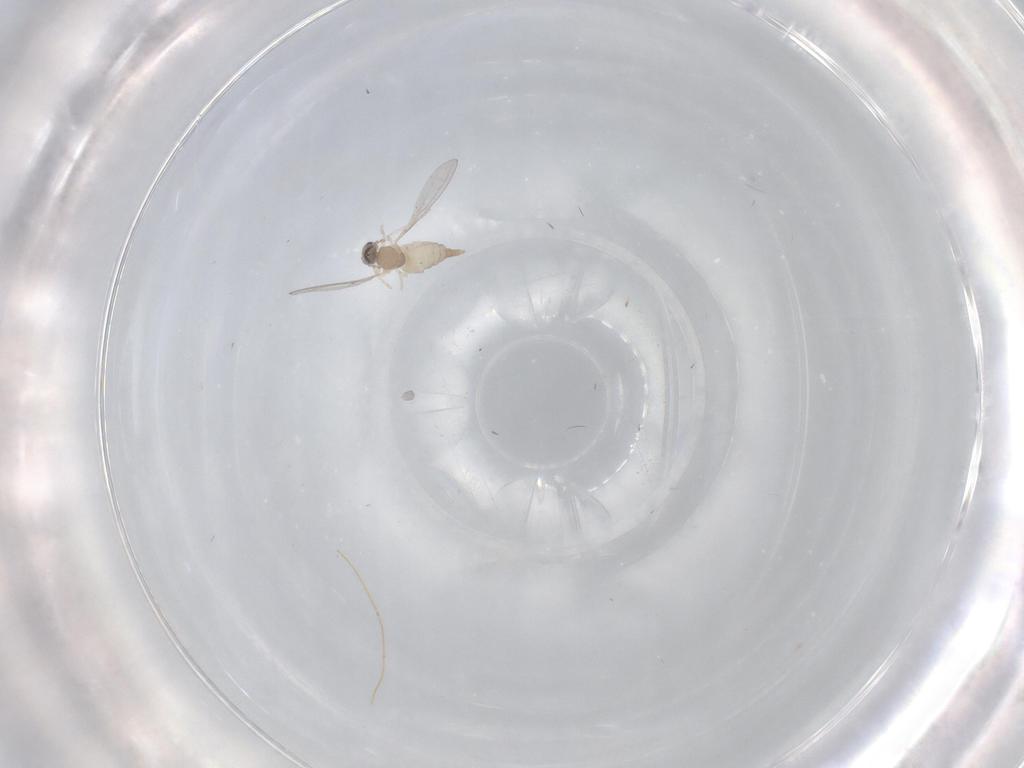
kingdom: Animalia
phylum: Arthropoda
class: Insecta
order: Diptera
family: Cecidomyiidae
